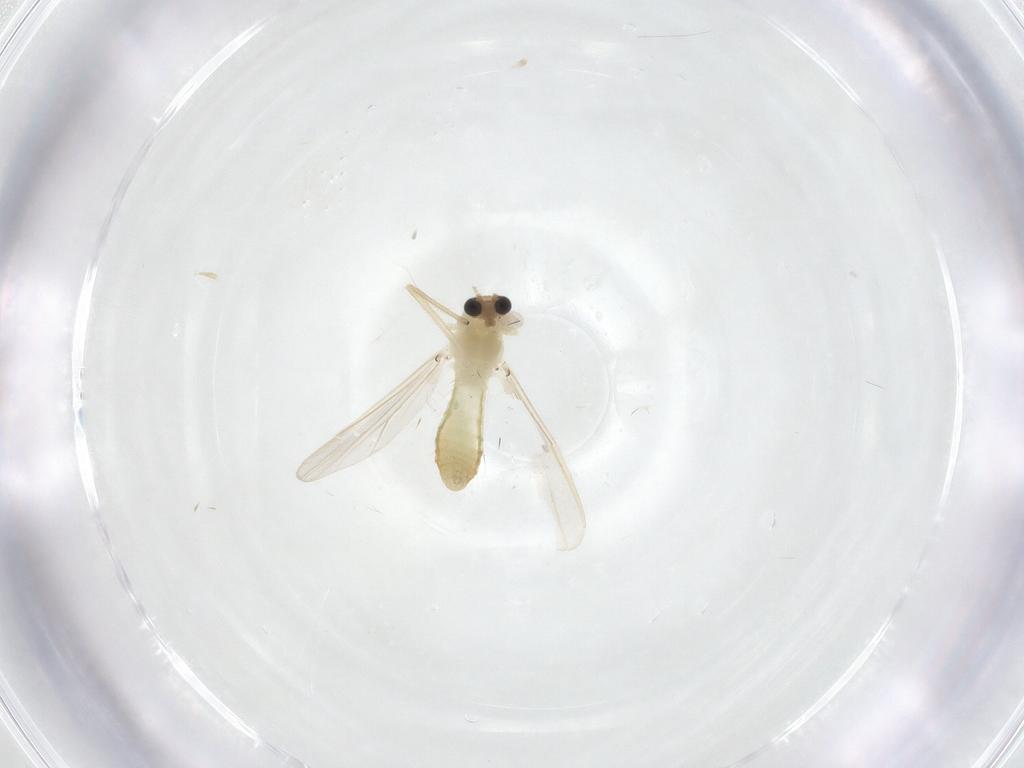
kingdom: Animalia
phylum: Arthropoda
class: Insecta
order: Diptera
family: Chironomidae
